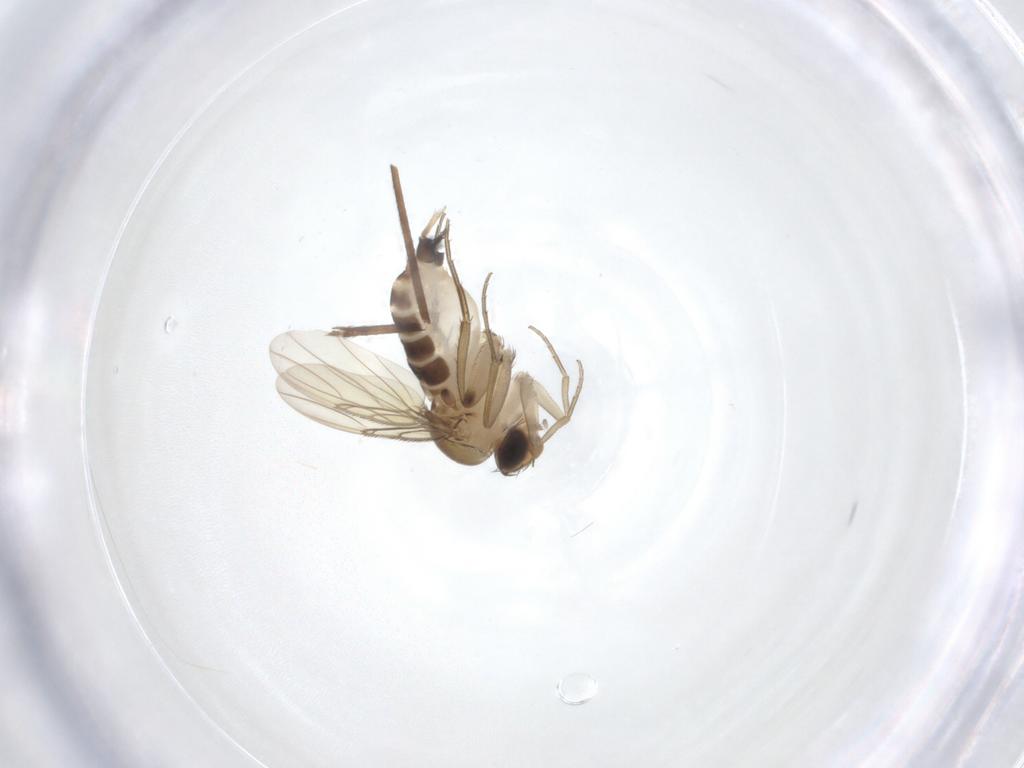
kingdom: Animalia
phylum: Arthropoda
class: Insecta
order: Diptera
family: Phoridae
